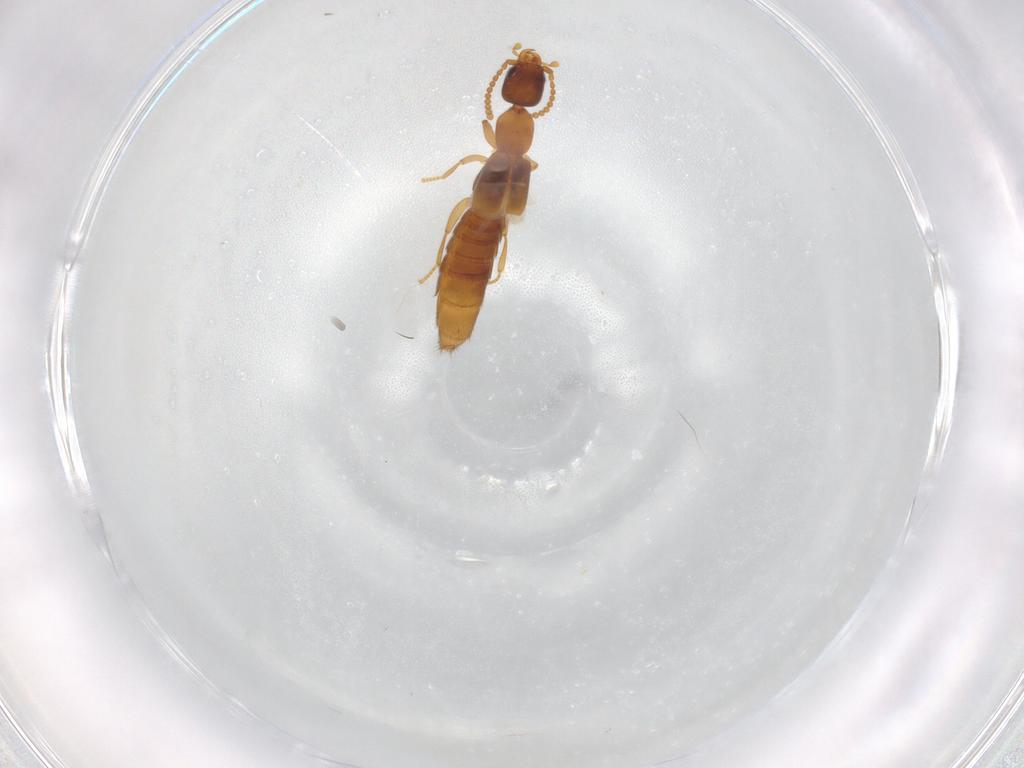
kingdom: Animalia
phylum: Arthropoda
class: Insecta
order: Coleoptera
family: Staphylinidae
